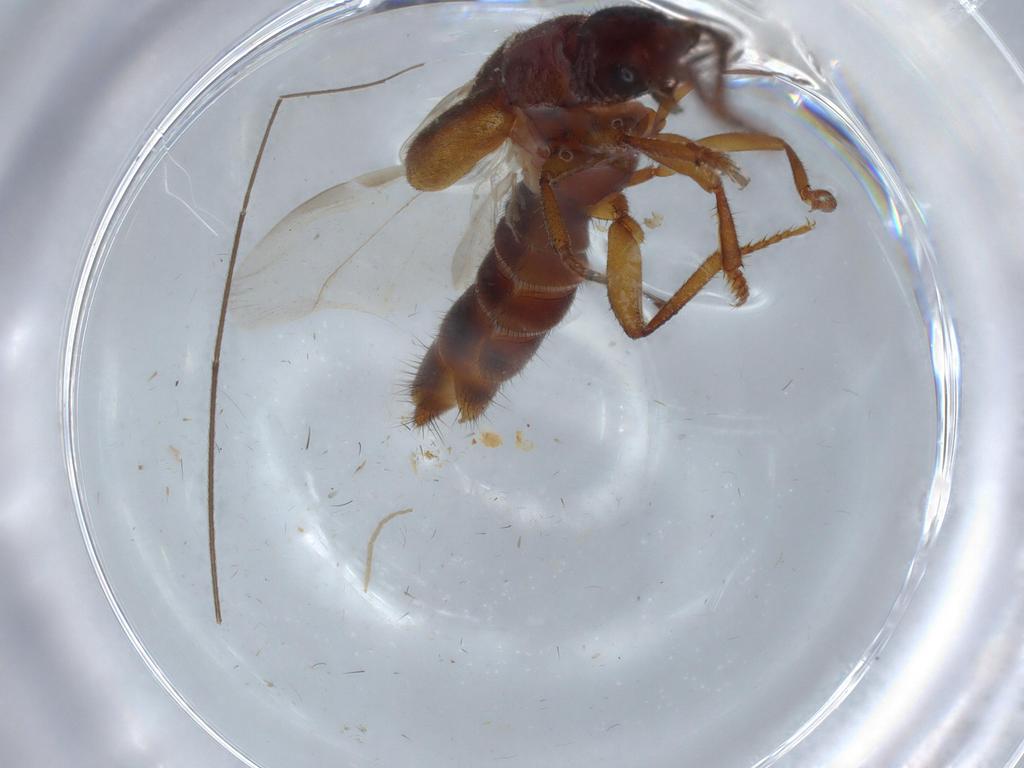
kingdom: Animalia
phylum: Arthropoda
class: Insecta
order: Coleoptera
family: Staphylinidae
